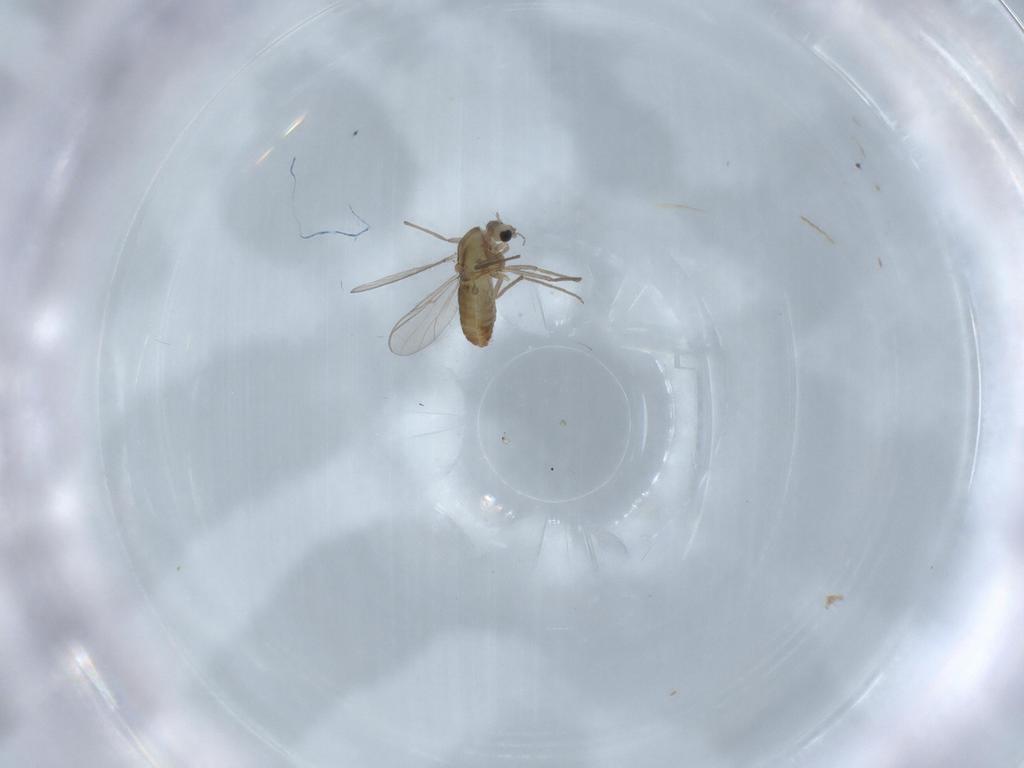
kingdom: Animalia
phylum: Arthropoda
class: Insecta
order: Diptera
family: Chironomidae
